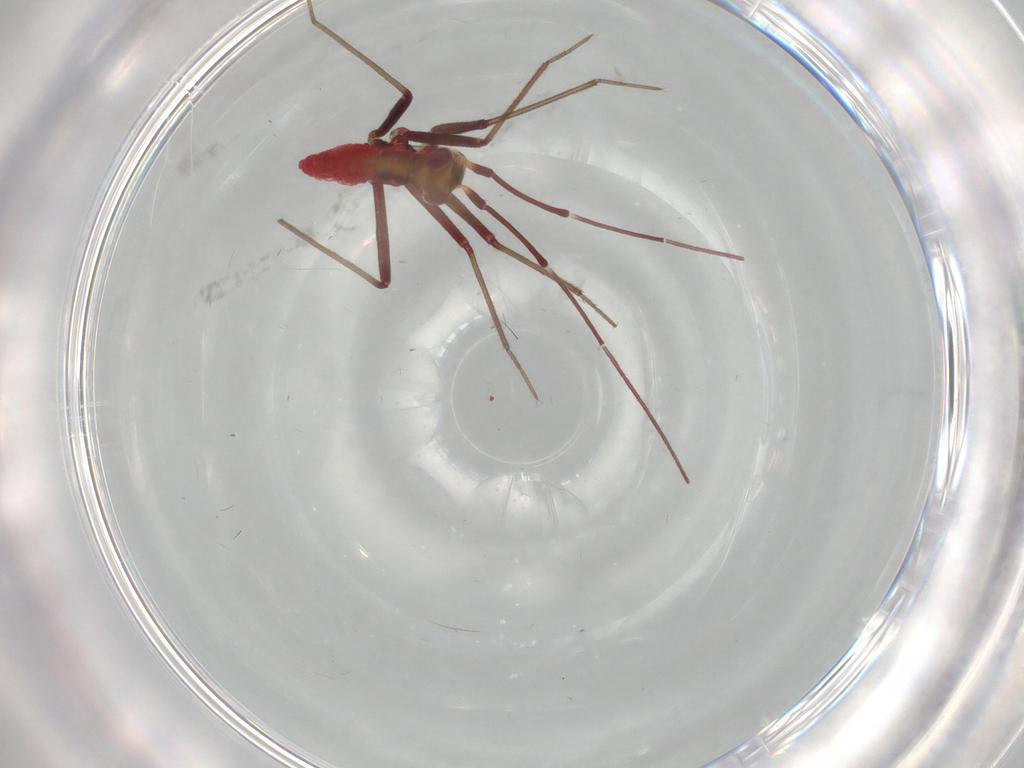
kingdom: Animalia
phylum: Arthropoda
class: Insecta
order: Hemiptera
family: Miridae
